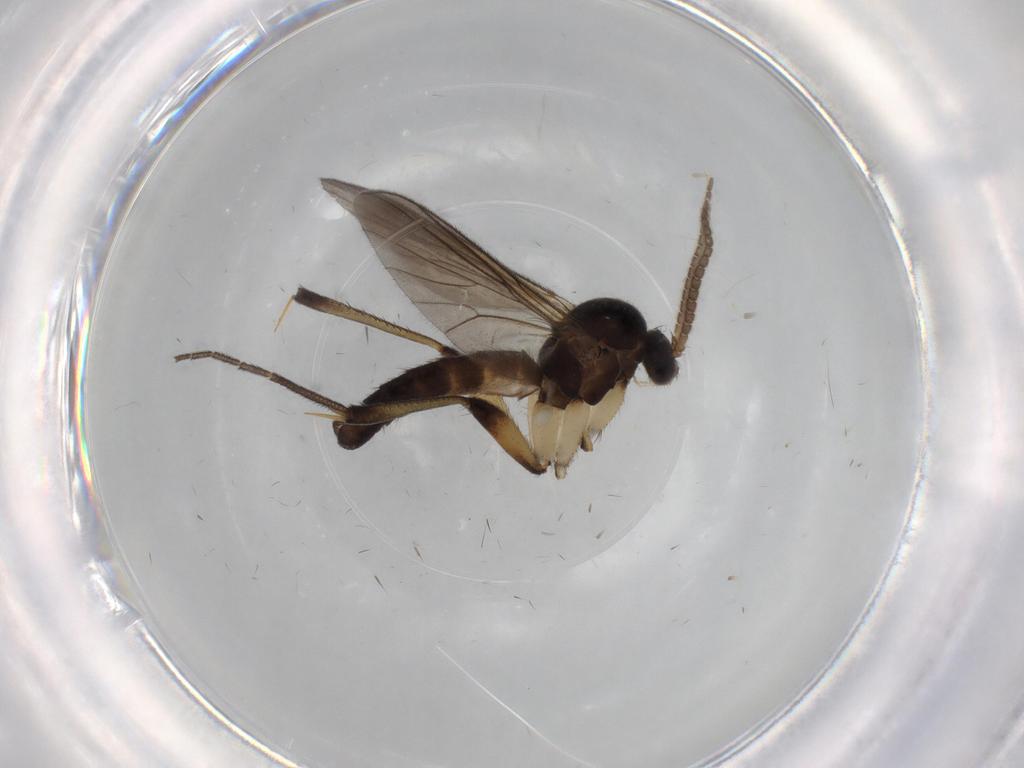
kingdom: Animalia
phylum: Arthropoda
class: Insecta
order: Diptera
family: Mycetophilidae
